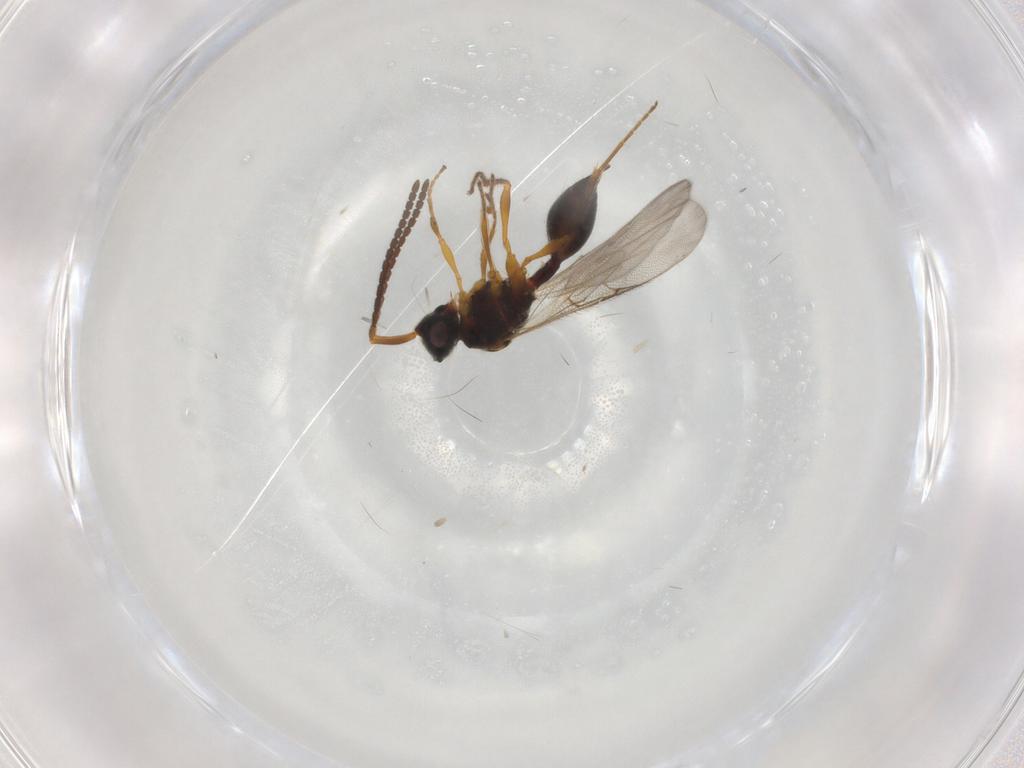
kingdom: Animalia
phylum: Arthropoda
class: Insecta
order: Hymenoptera
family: Diapriidae
